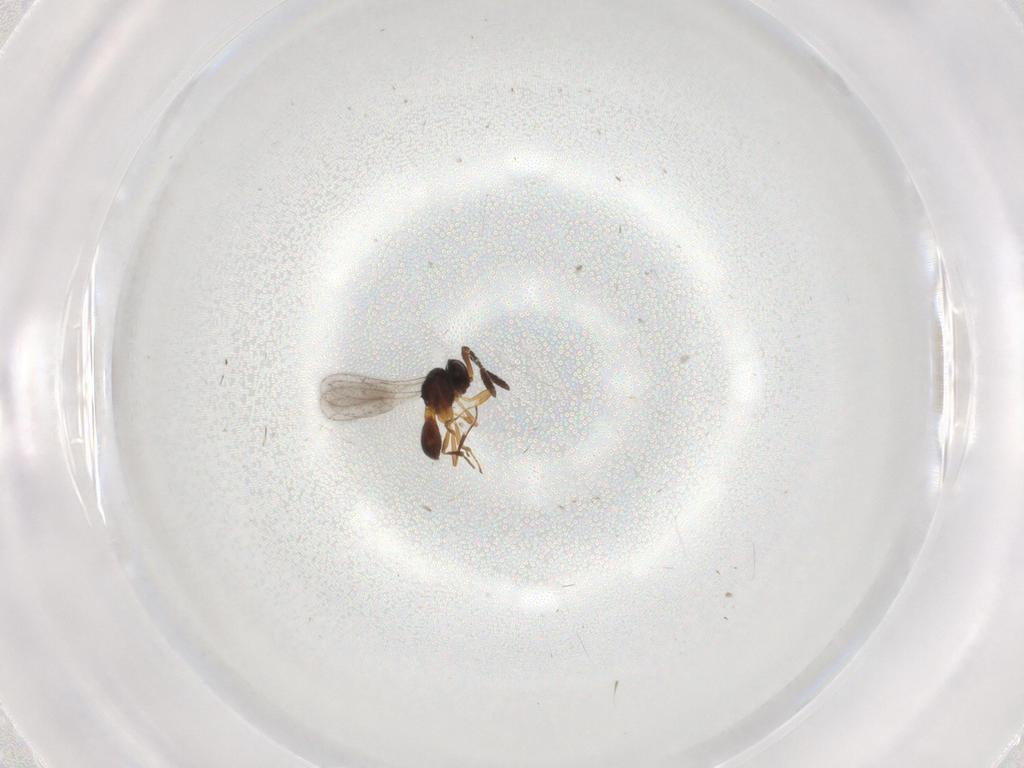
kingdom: Animalia
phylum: Arthropoda
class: Insecta
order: Hymenoptera
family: Scelionidae
